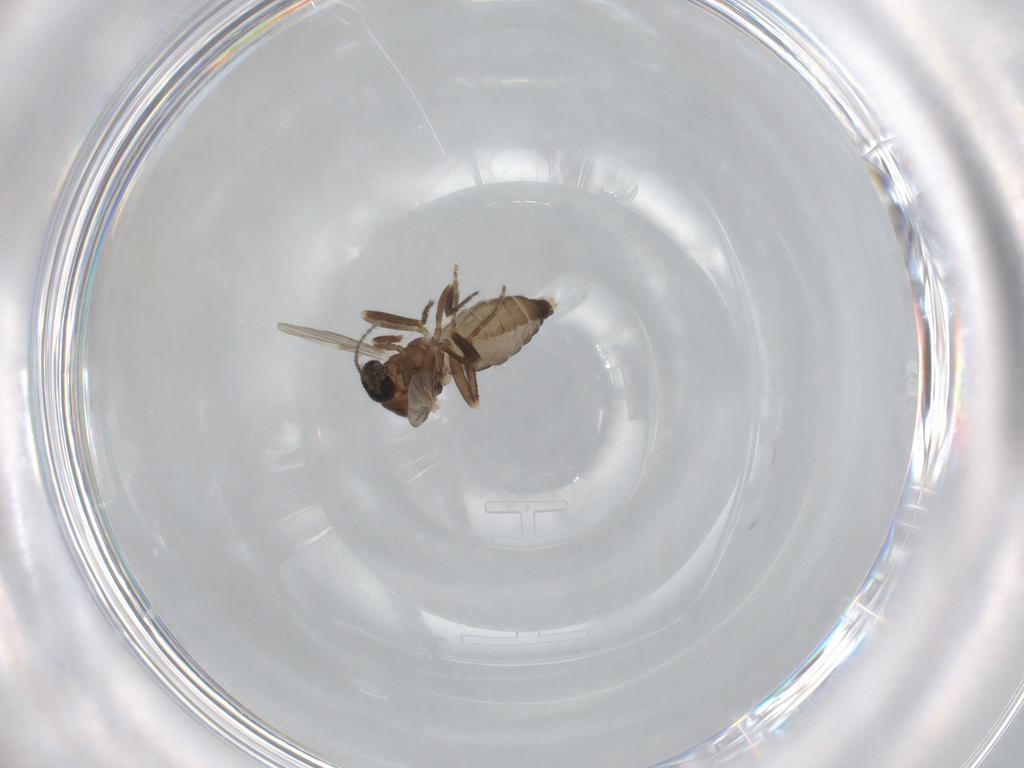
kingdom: Animalia
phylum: Arthropoda
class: Insecta
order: Diptera
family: Ceratopogonidae
